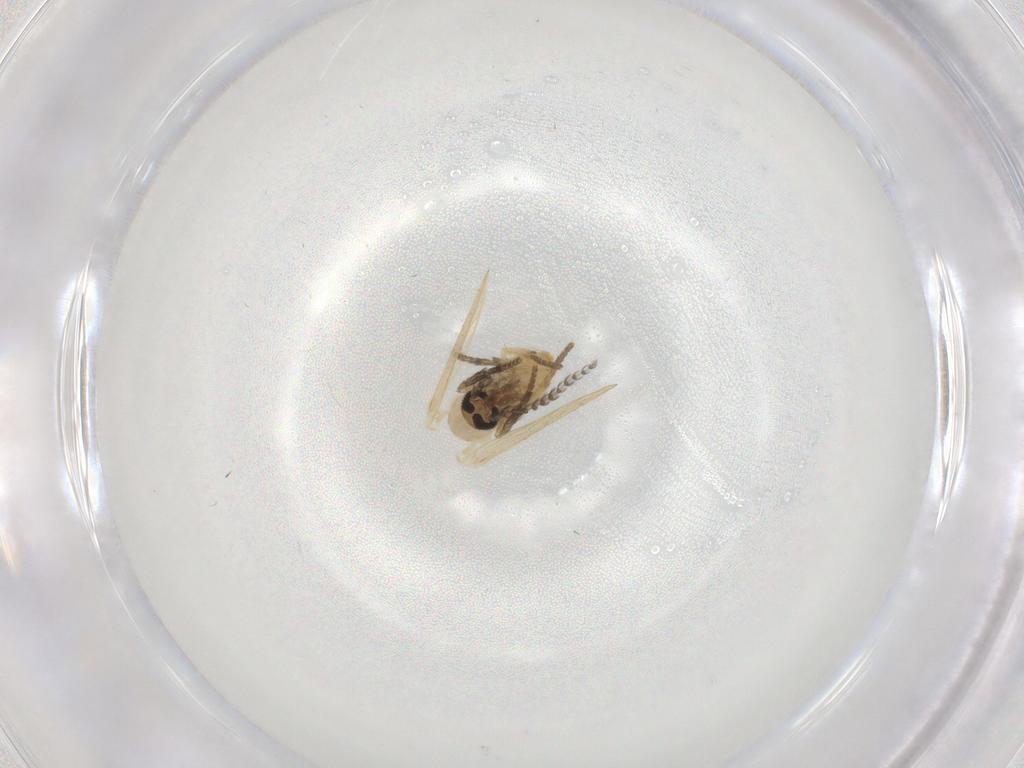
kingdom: Animalia
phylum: Arthropoda
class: Insecta
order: Diptera
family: Psychodidae
